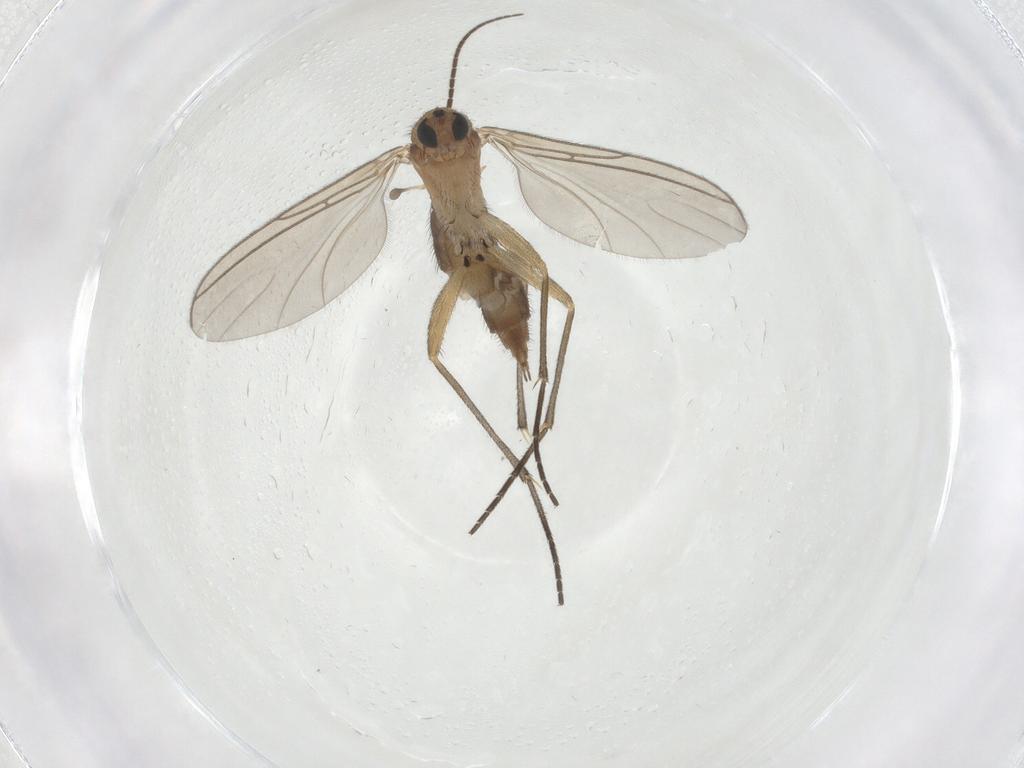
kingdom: Animalia
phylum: Arthropoda
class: Insecta
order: Diptera
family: Sciaridae
